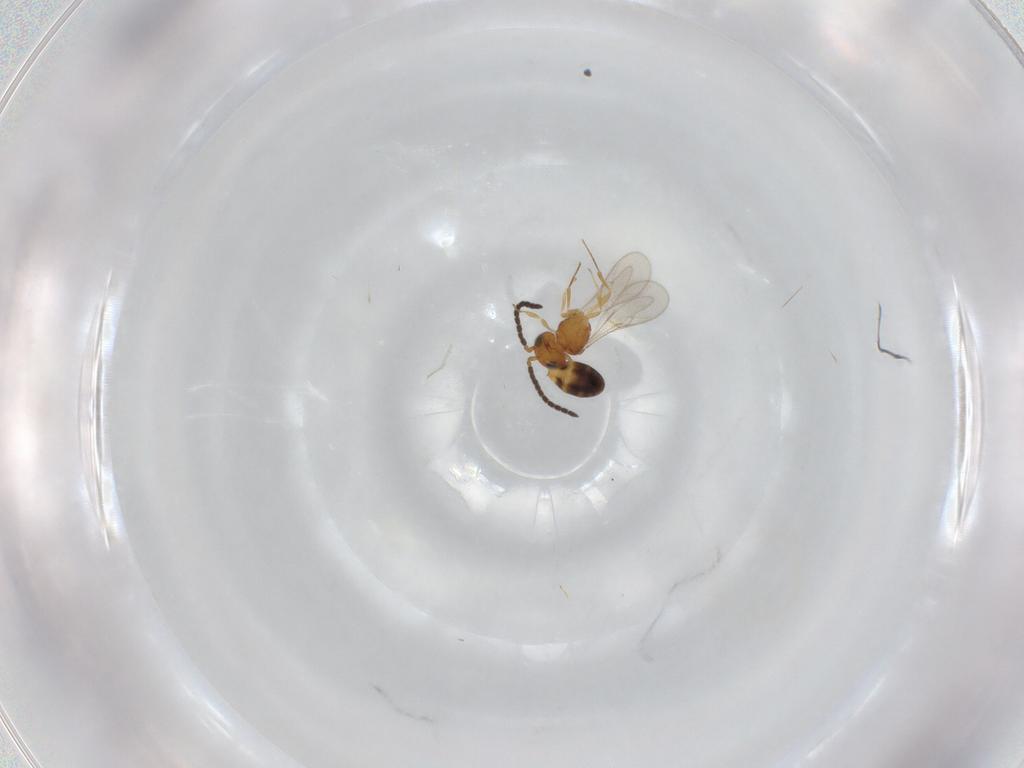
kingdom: Animalia
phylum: Arthropoda
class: Insecta
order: Hymenoptera
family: Scelionidae
